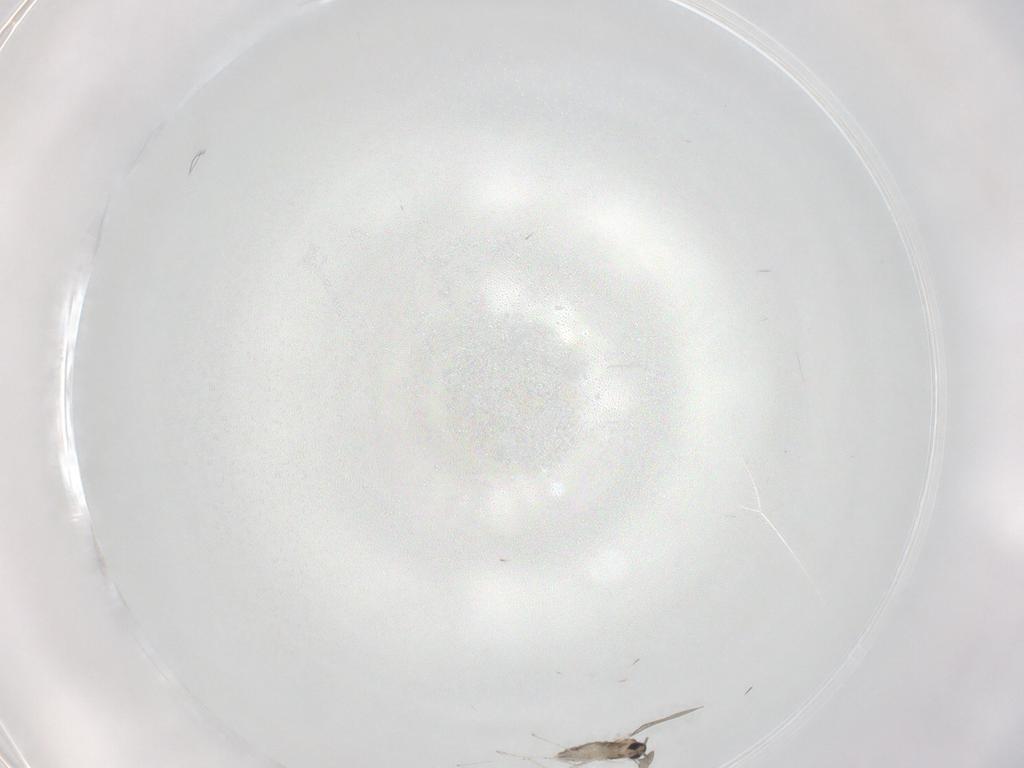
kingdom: Animalia
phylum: Arthropoda
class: Insecta
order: Diptera
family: Cecidomyiidae
